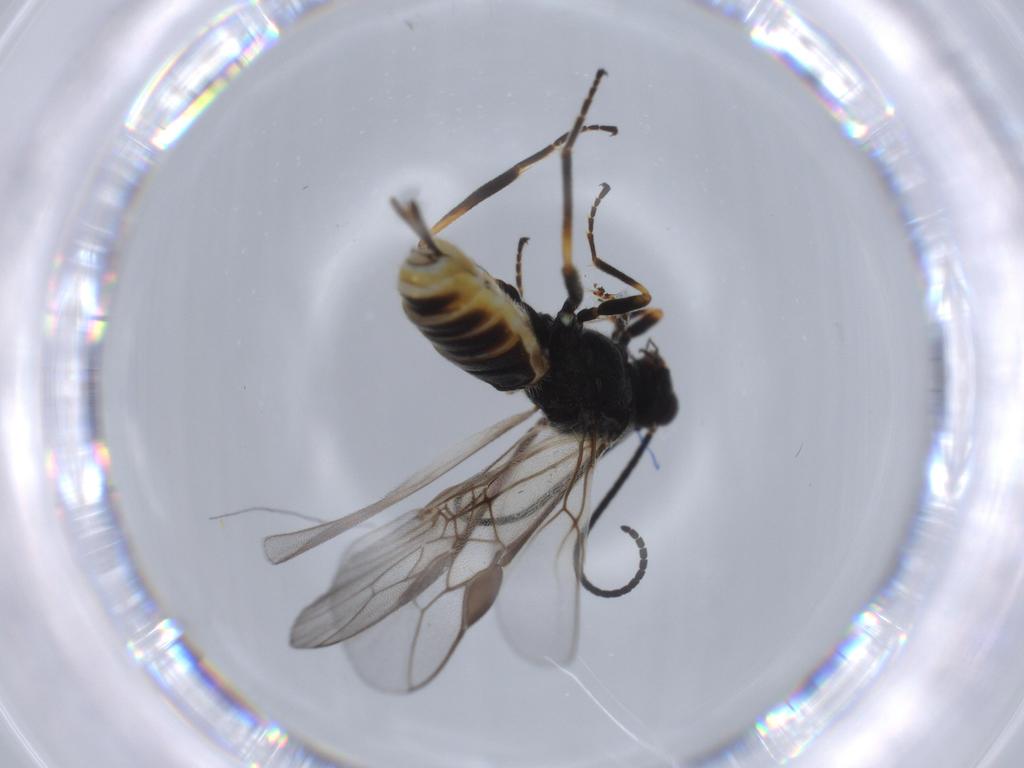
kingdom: Animalia
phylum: Arthropoda
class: Insecta
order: Hymenoptera
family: Braconidae
